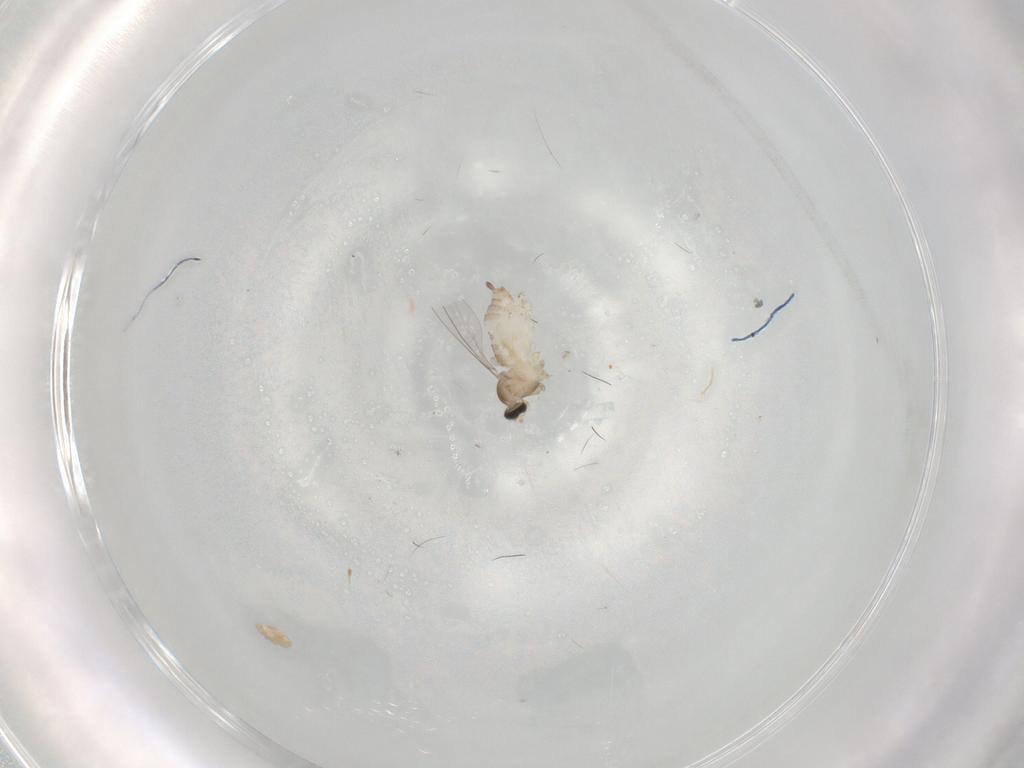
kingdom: Animalia
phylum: Arthropoda
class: Insecta
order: Diptera
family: Cecidomyiidae
